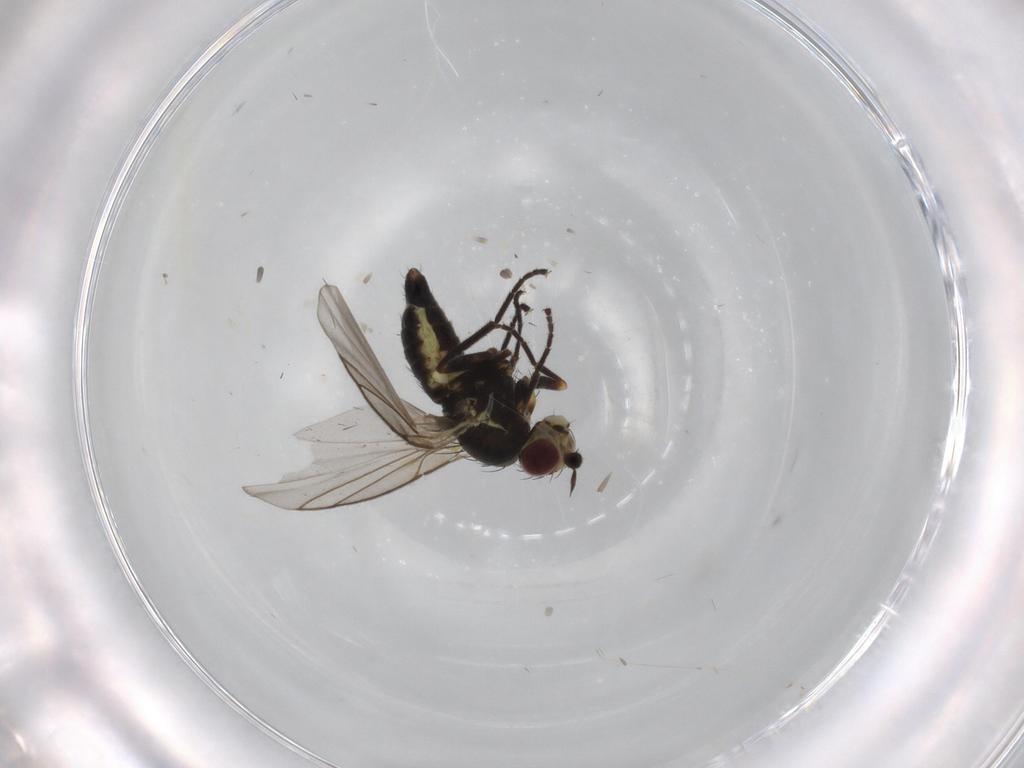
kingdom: Animalia
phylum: Arthropoda
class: Insecta
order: Diptera
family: Agromyzidae
